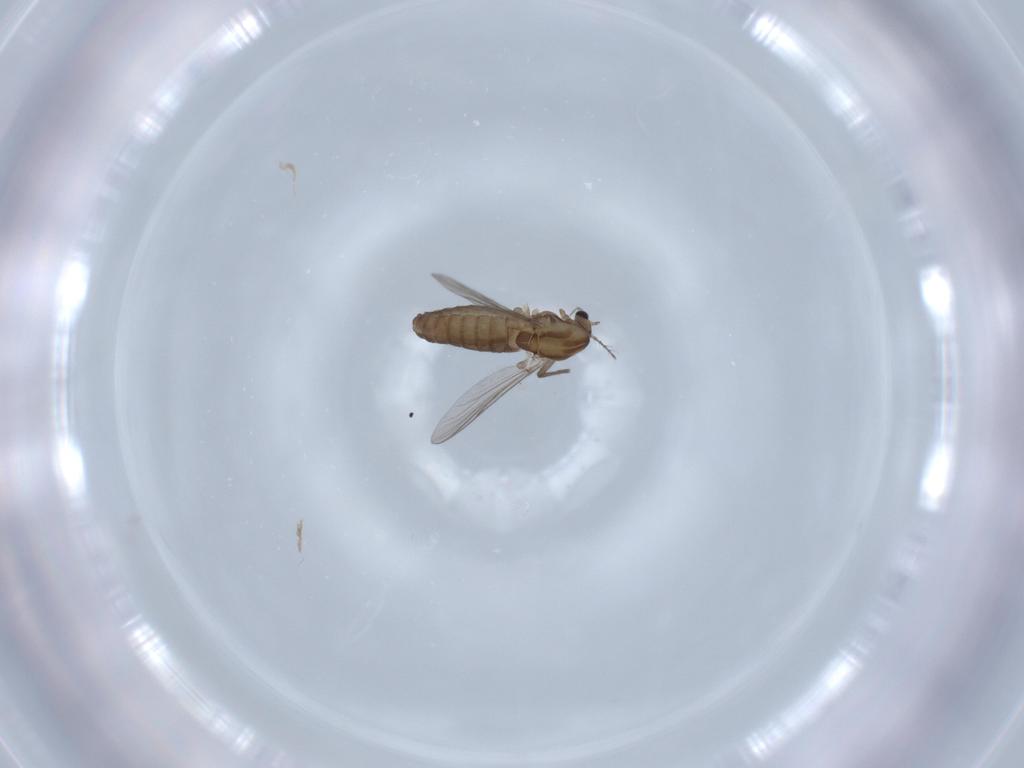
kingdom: Animalia
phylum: Arthropoda
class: Insecta
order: Diptera
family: Chironomidae
